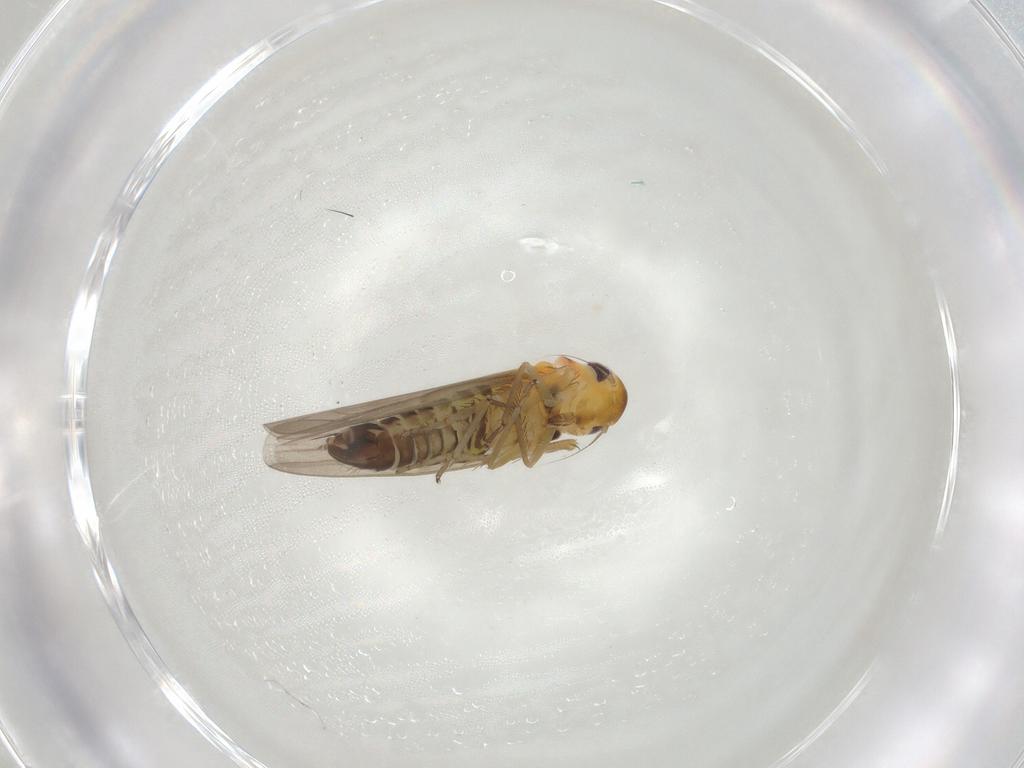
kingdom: Animalia
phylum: Arthropoda
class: Insecta
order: Hemiptera
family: Cicadellidae
